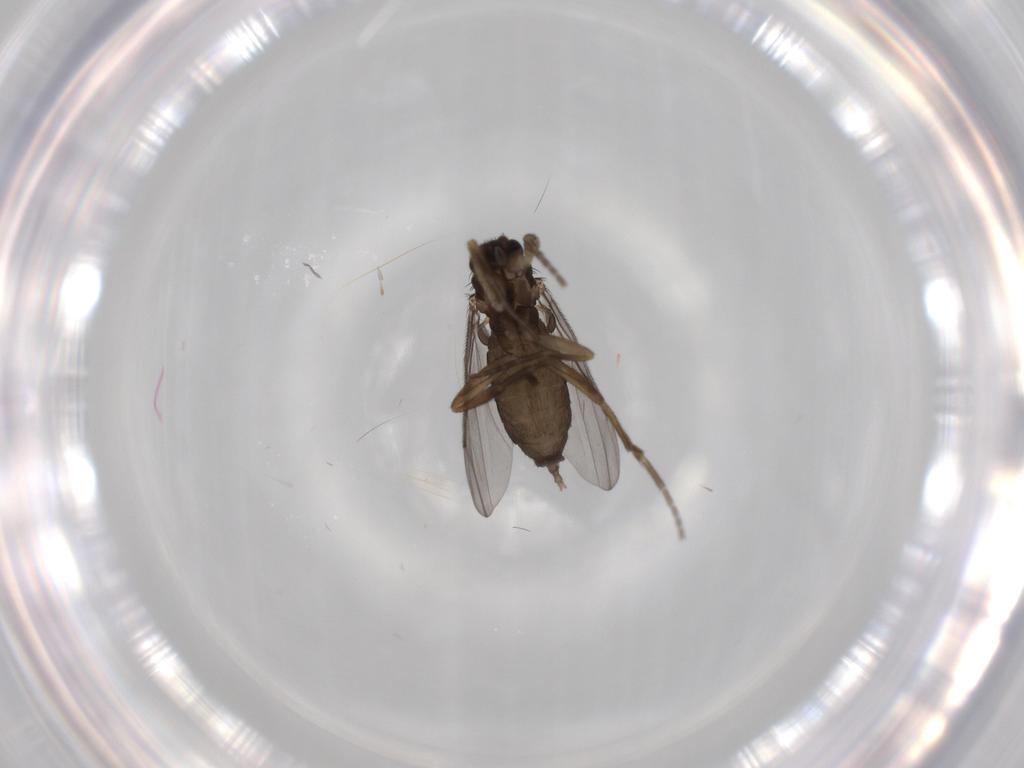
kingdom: Animalia
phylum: Arthropoda
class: Insecta
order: Diptera
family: Phoridae
